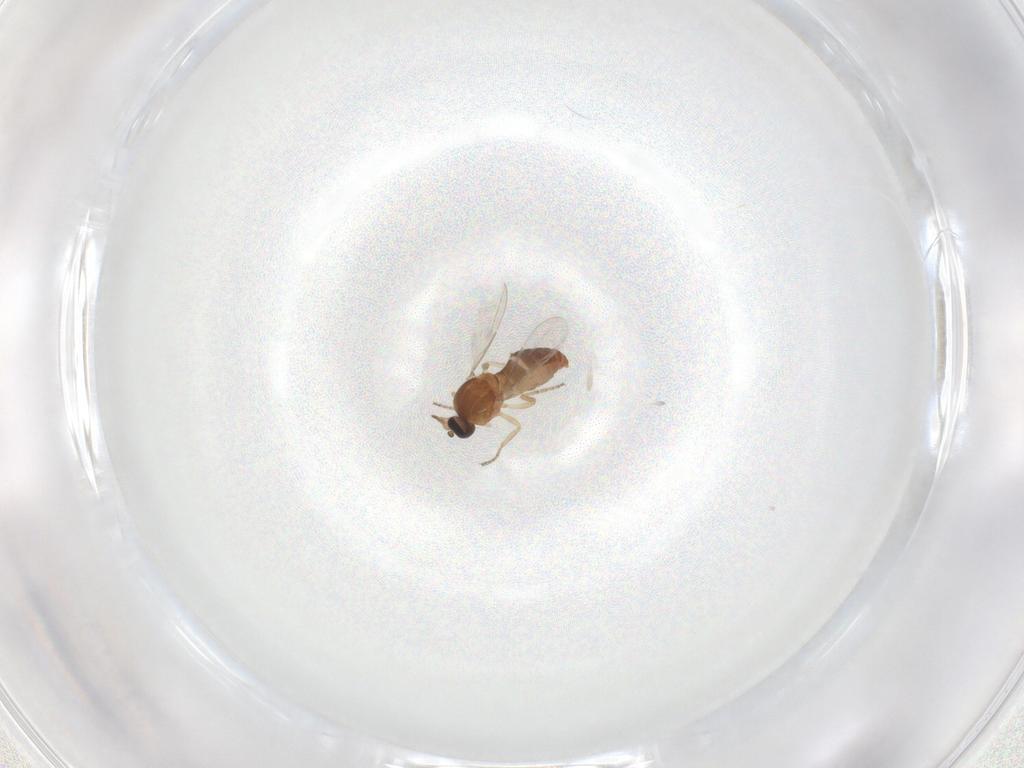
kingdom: Animalia
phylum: Arthropoda
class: Insecta
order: Diptera
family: Ceratopogonidae
